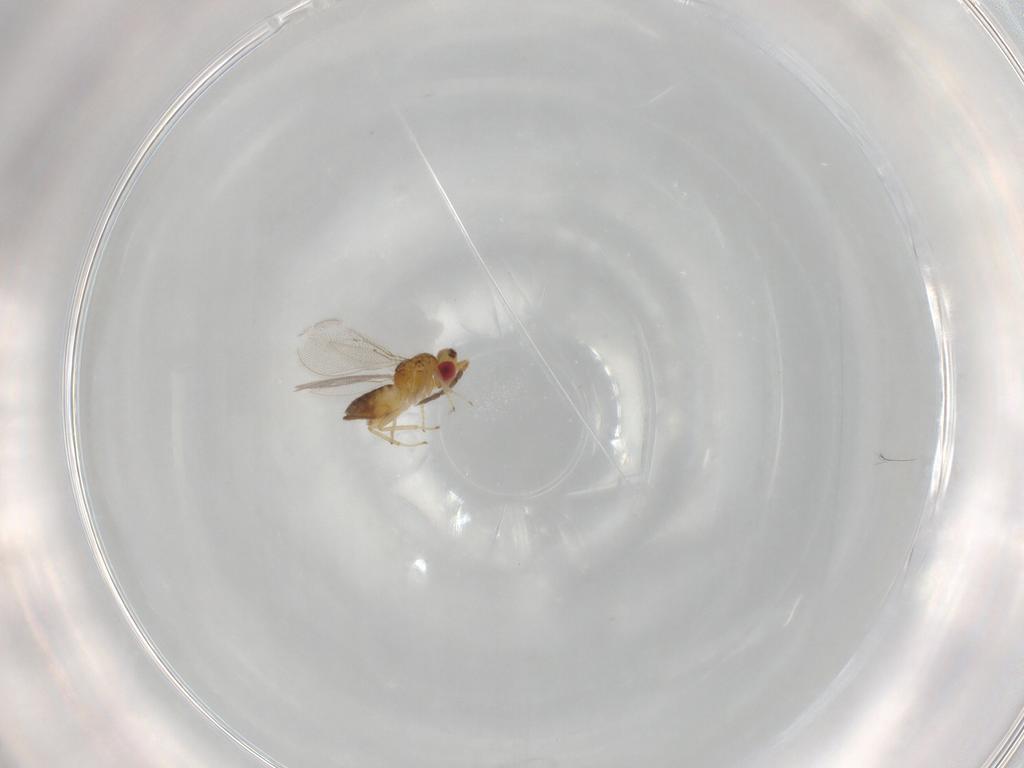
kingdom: Animalia
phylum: Arthropoda
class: Insecta
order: Hymenoptera
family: Eulophidae
